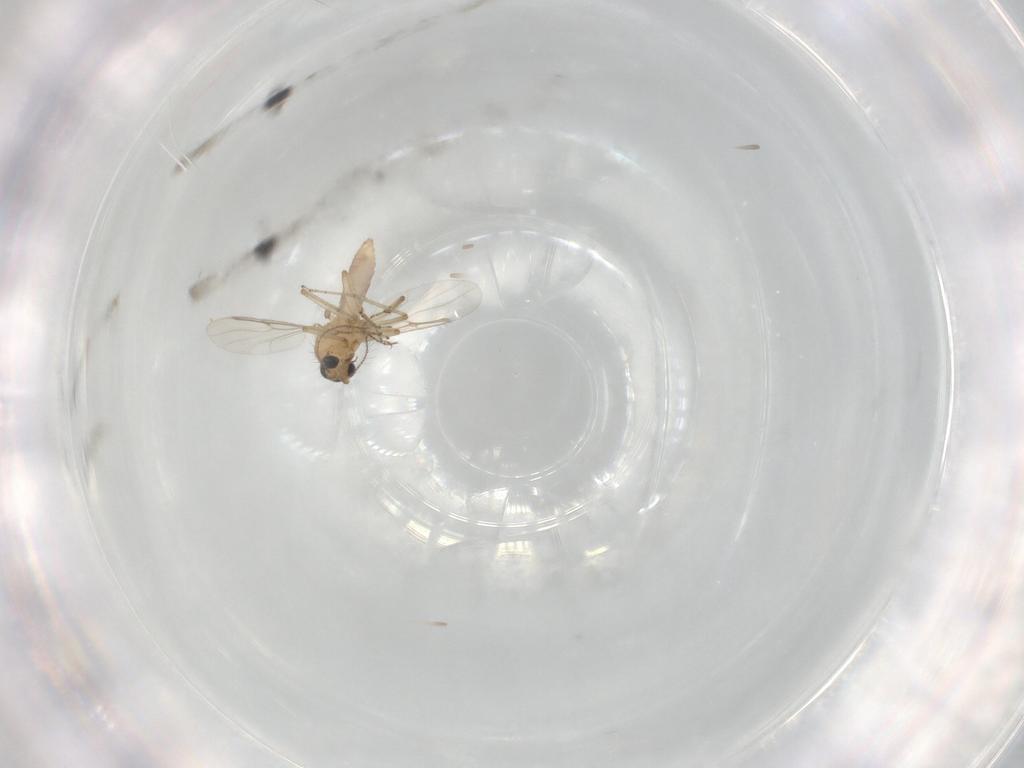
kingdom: Animalia
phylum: Arthropoda
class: Insecta
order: Diptera
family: Ceratopogonidae
